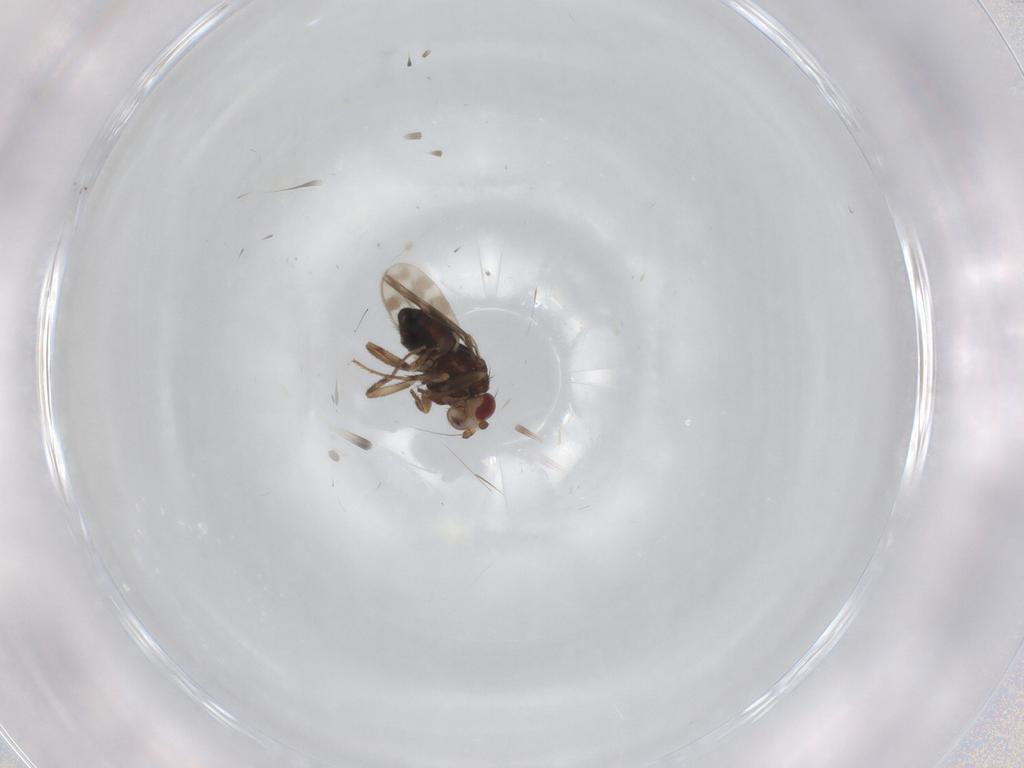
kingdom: Animalia
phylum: Arthropoda
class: Insecta
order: Diptera
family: Sphaeroceridae
